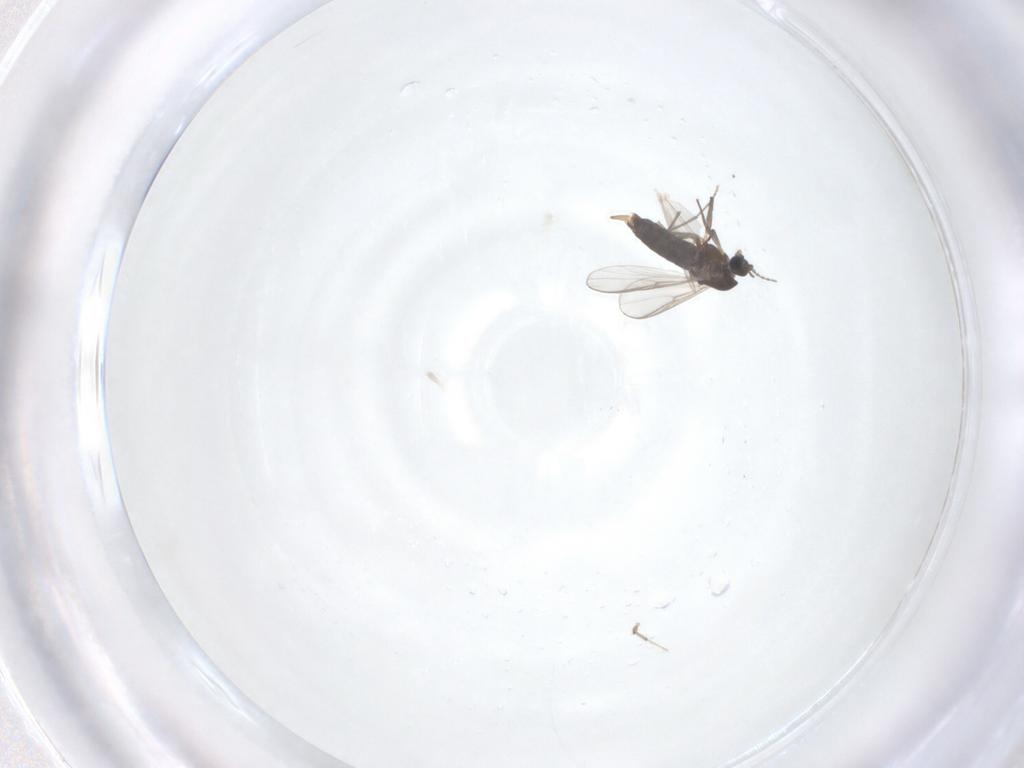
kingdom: Animalia
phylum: Arthropoda
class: Insecta
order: Diptera
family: Chironomidae
